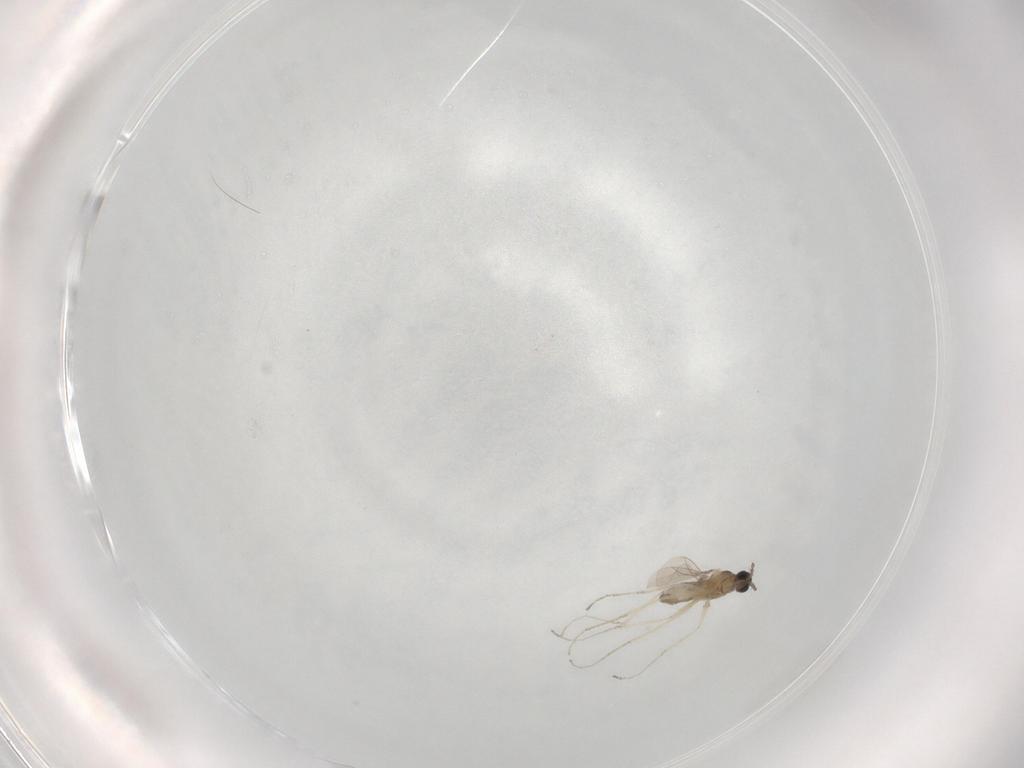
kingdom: Animalia
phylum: Arthropoda
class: Insecta
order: Diptera
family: Cecidomyiidae
